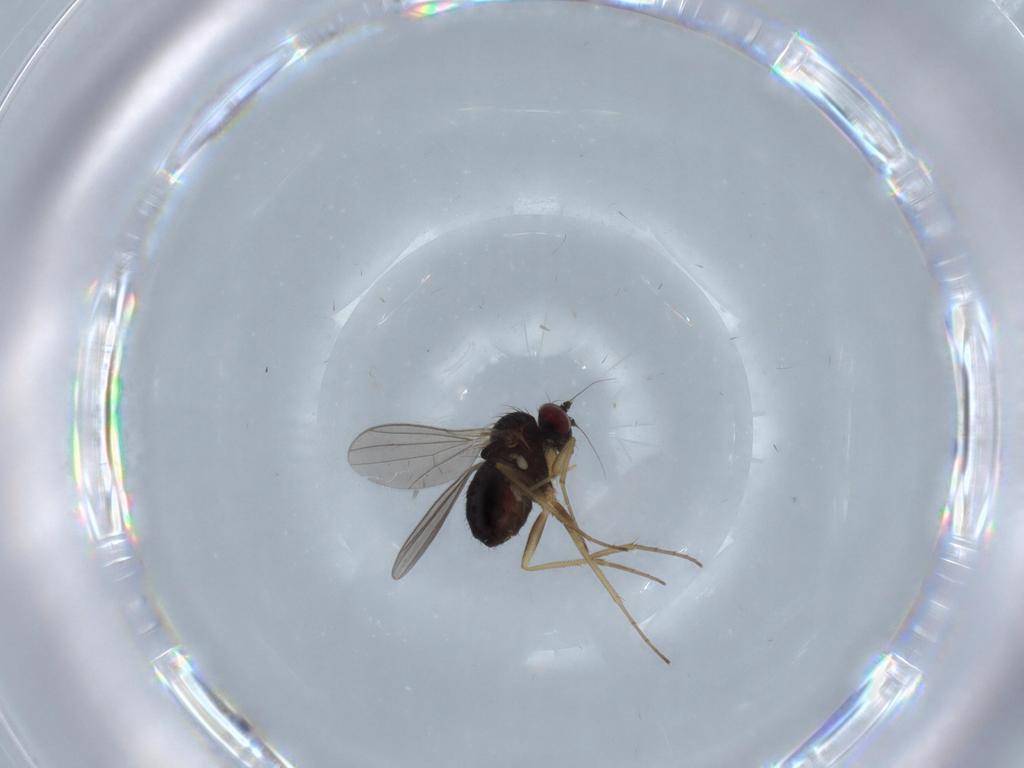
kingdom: Animalia
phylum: Arthropoda
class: Insecta
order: Diptera
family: Dolichopodidae
